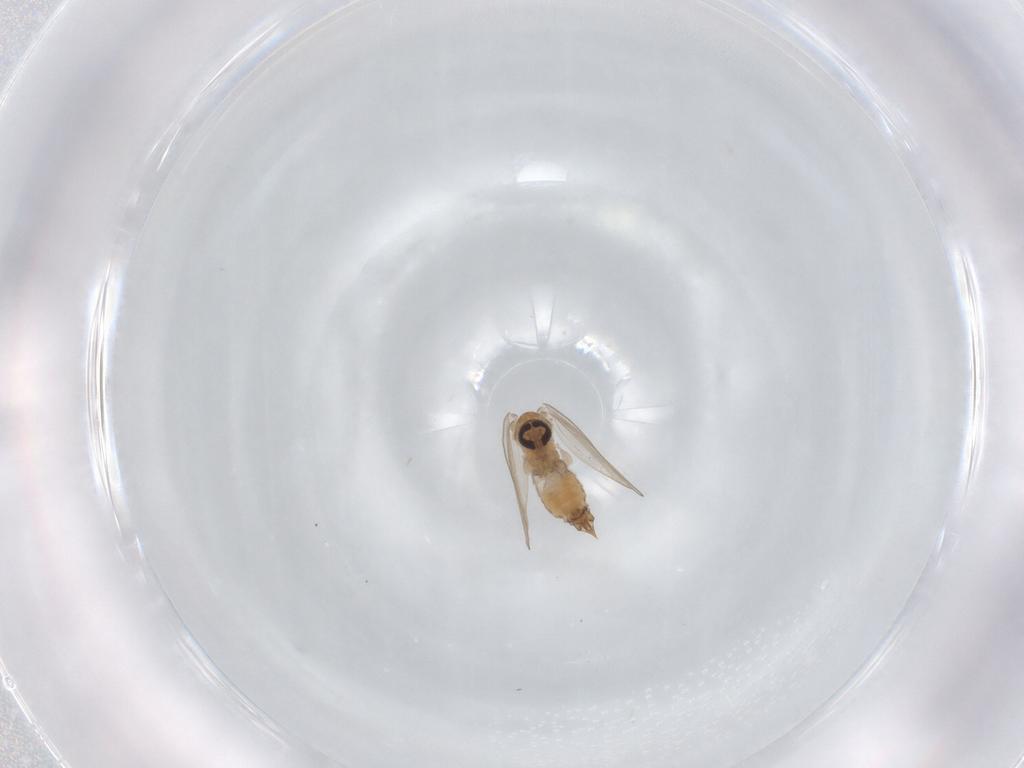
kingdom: Animalia
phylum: Arthropoda
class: Insecta
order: Diptera
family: Psychodidae
